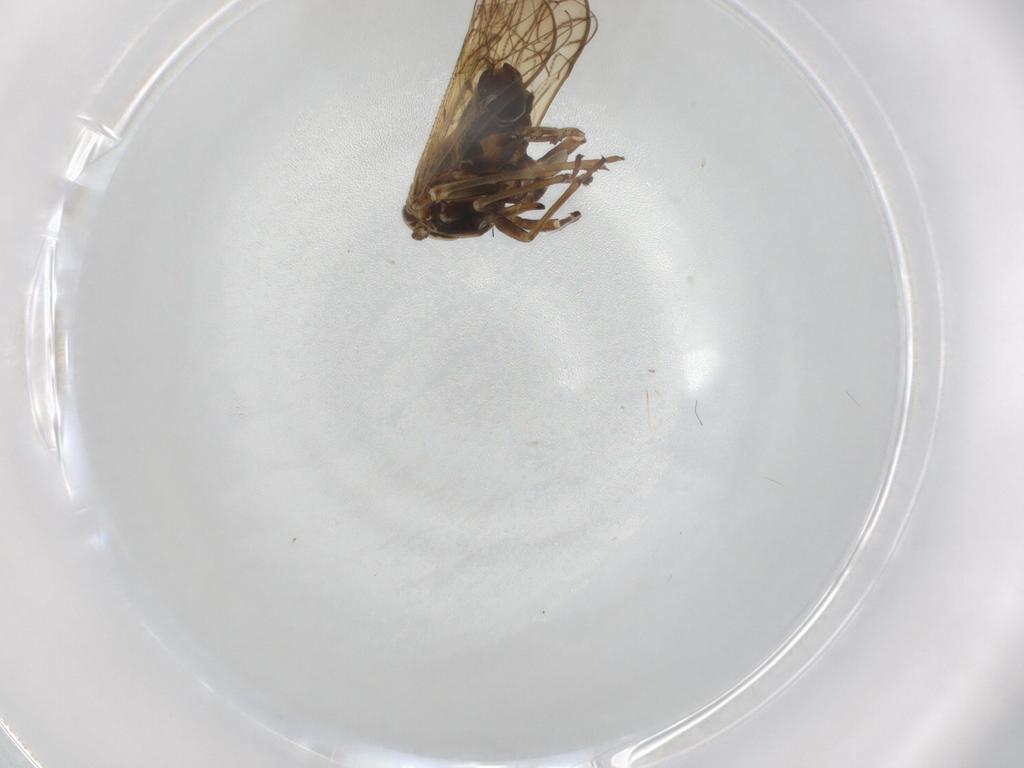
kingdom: Animalia
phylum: Arthropoda
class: Insecta
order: Hemiptera
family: Delphacidae
